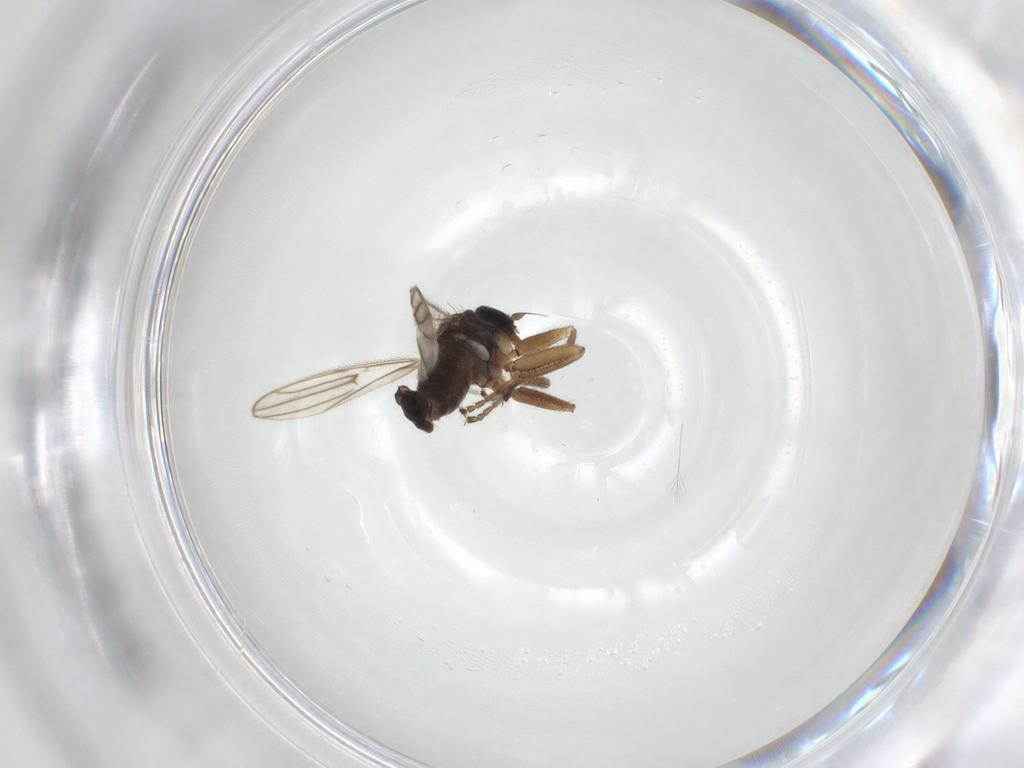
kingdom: Animalia
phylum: Arthropoda
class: Insecta
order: Diptera
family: Hybotidae
